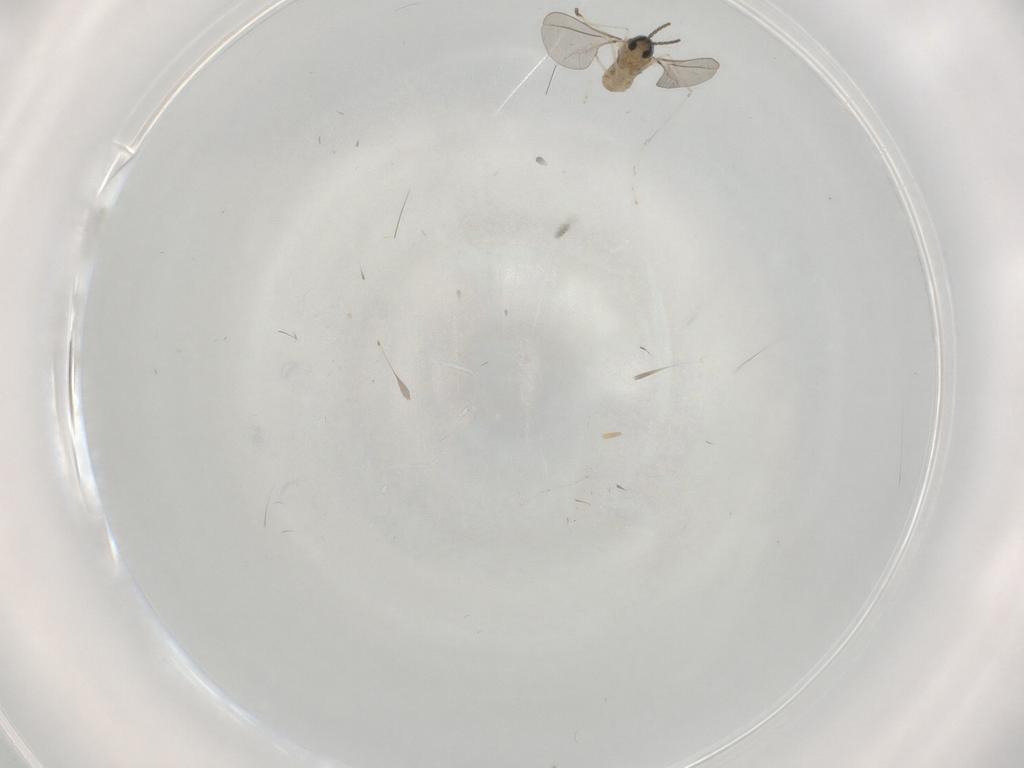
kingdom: Animalia
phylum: Arthropoda
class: Insecta
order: Diptera
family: Cecidomyiidae
